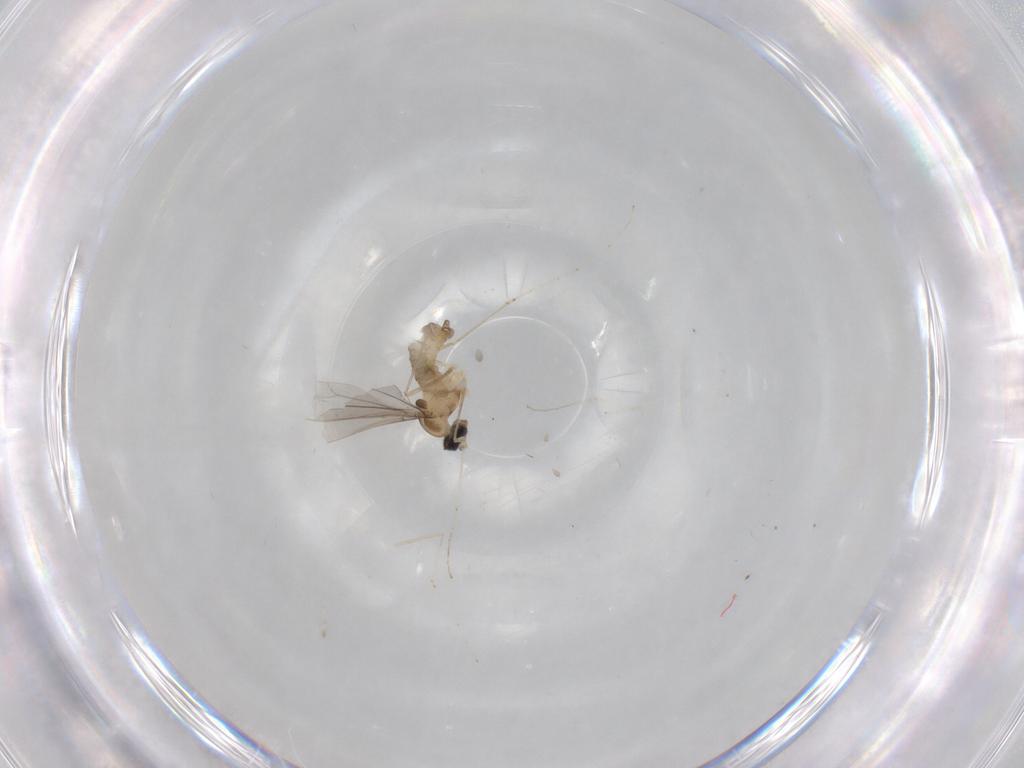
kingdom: Animalia
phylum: Arthropoda
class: Insecta
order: Diptera
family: Cecidomyiidae
